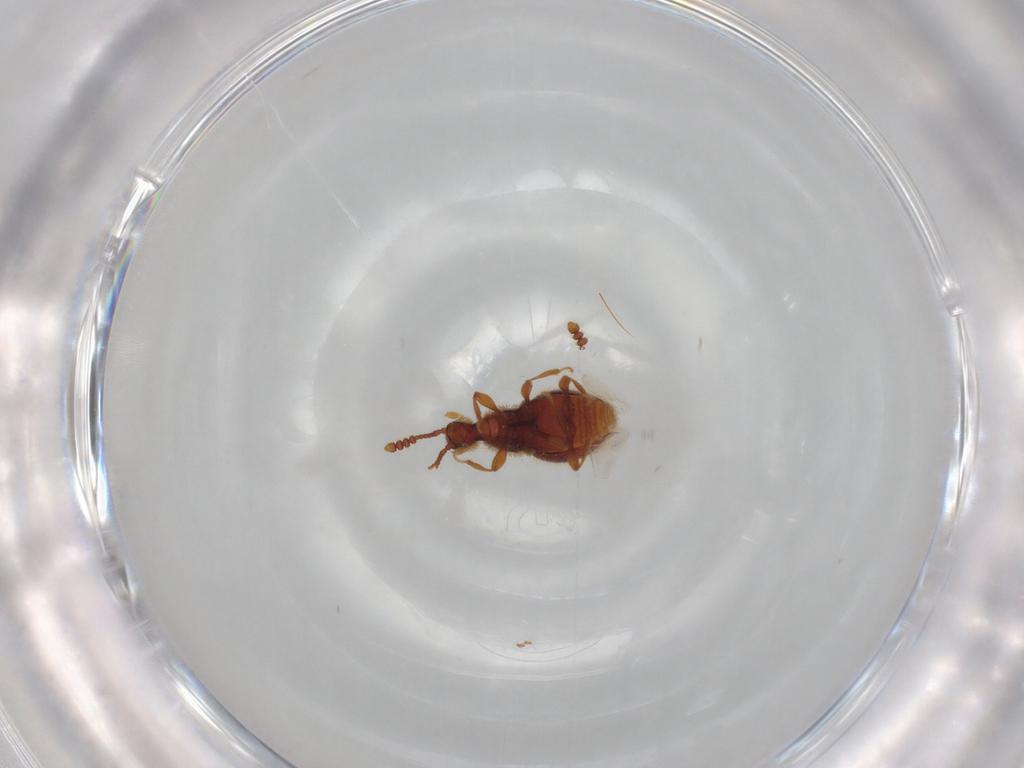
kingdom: Animalia
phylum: Arthropoda
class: Insecta
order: Coleoptera
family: Staphylinidae
